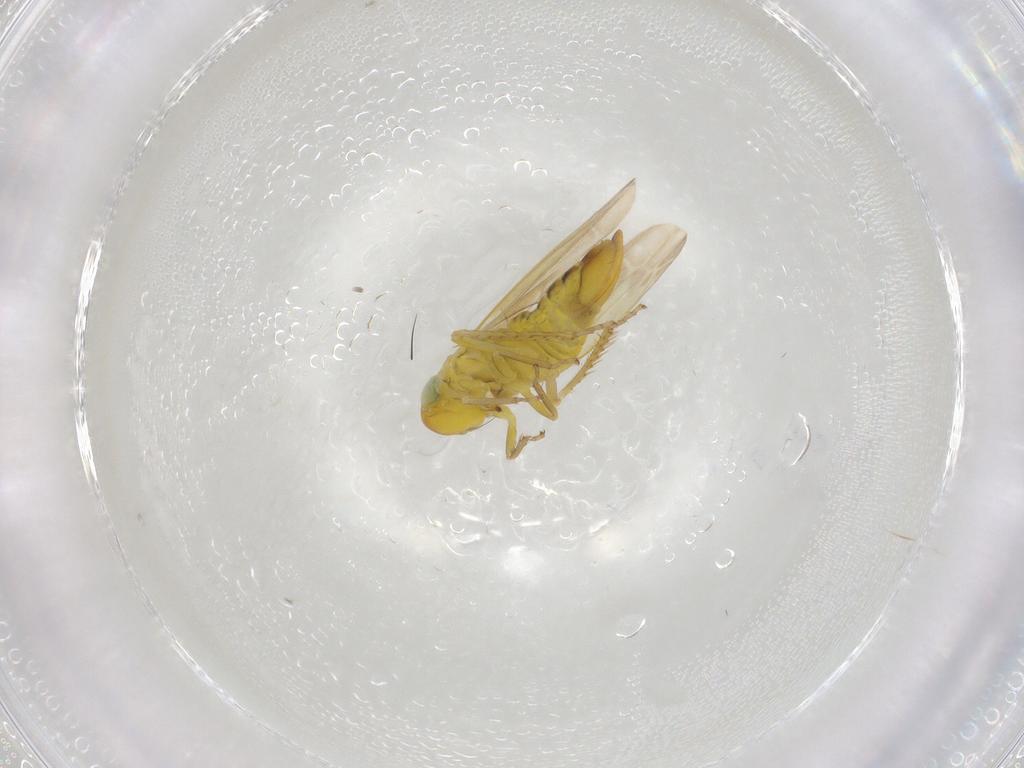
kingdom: Animalia
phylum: Arthropoda
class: Insecta
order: Hemiptera
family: Cicadellidae
